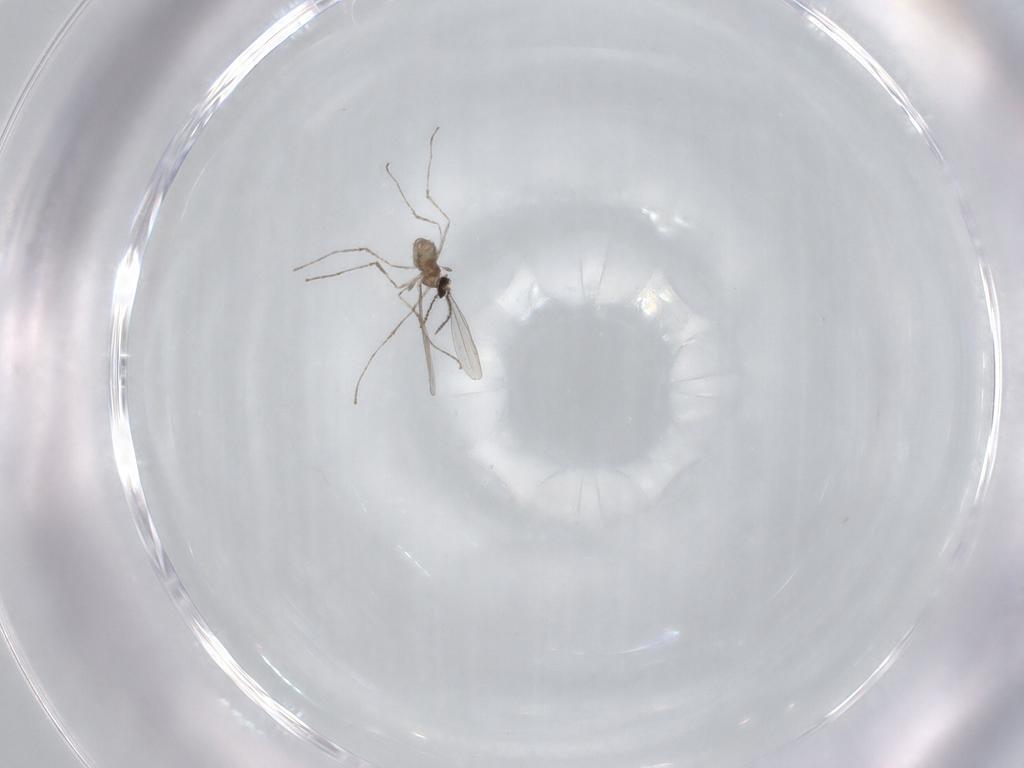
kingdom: Animalia
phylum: Arthropoda
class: Insecta
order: Diptera
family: Cecidomyiidae
